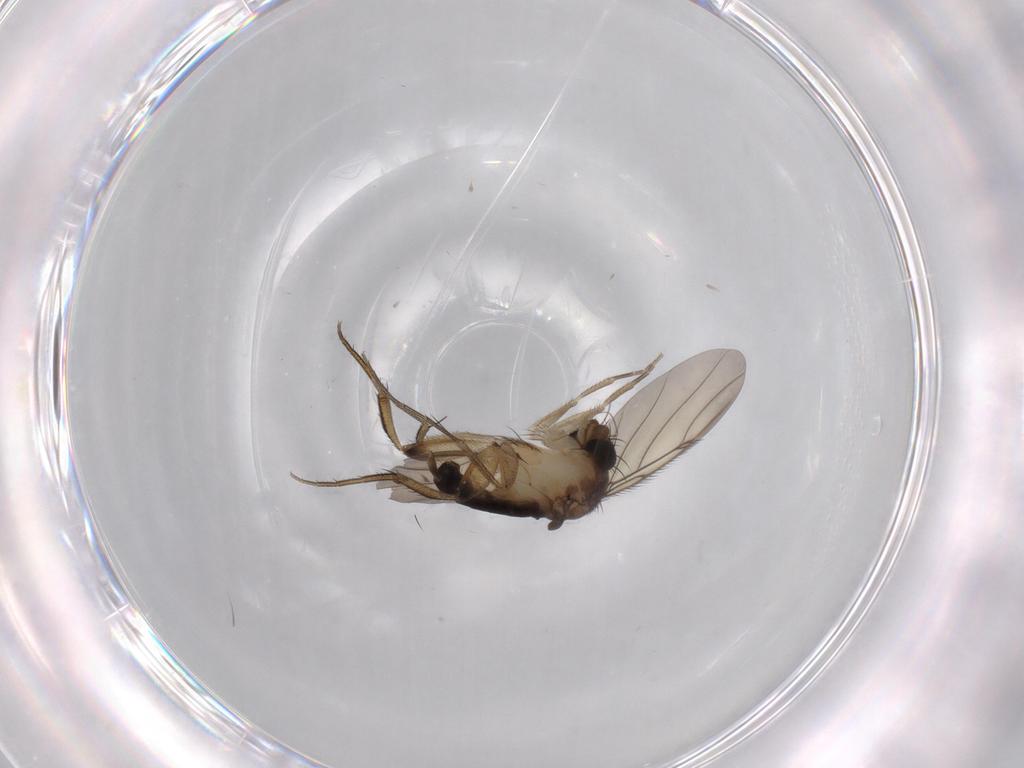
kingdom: Animalia
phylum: Arthropoda
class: Insecta
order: Diptera
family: Phoridae
